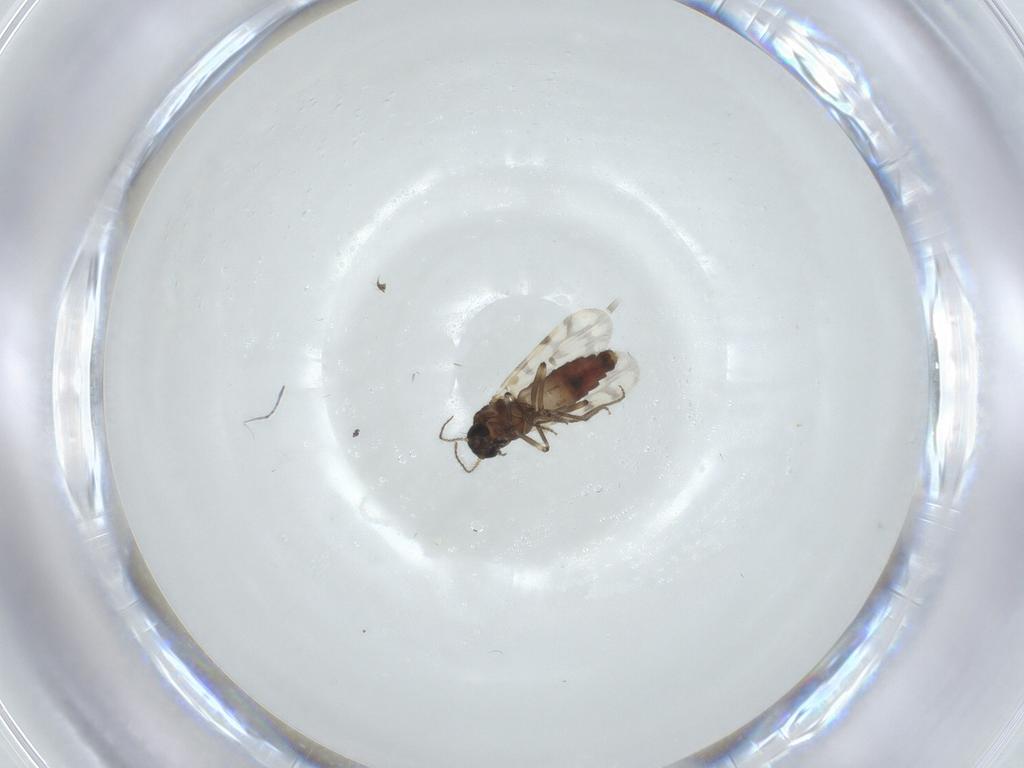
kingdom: Animalia
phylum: Arthropoda
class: Insecta
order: Diptera
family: Ceratopogonidae
